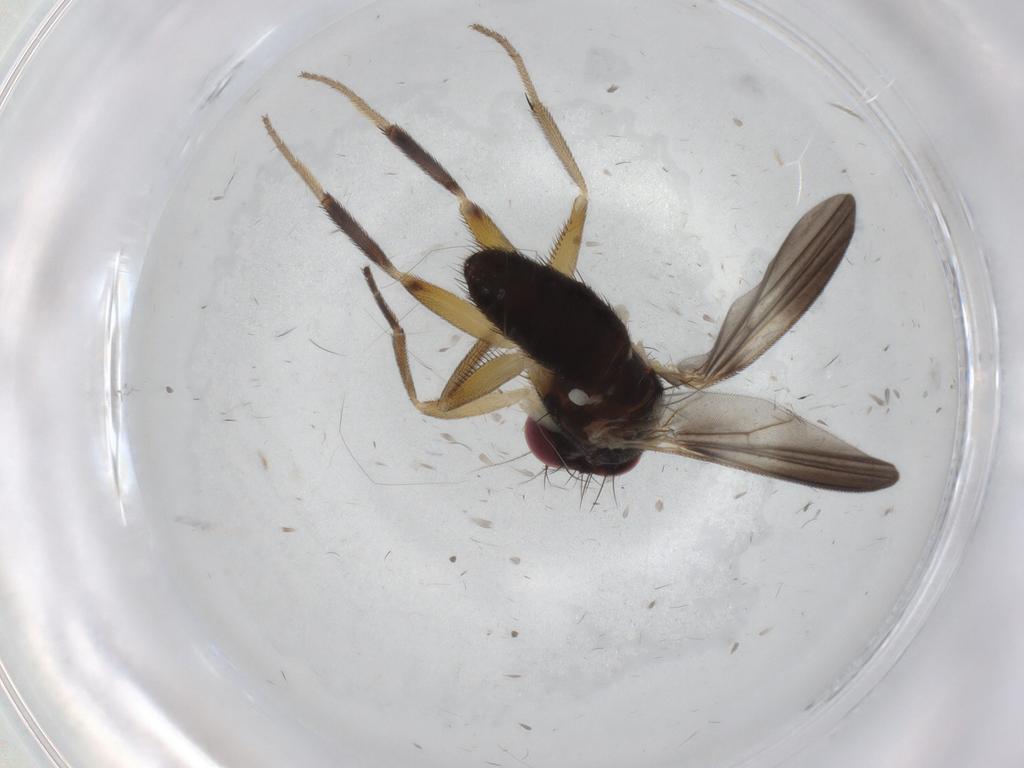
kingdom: Animalia
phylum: Arthropoda
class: Insecta
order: Diptera
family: Clusiidae
